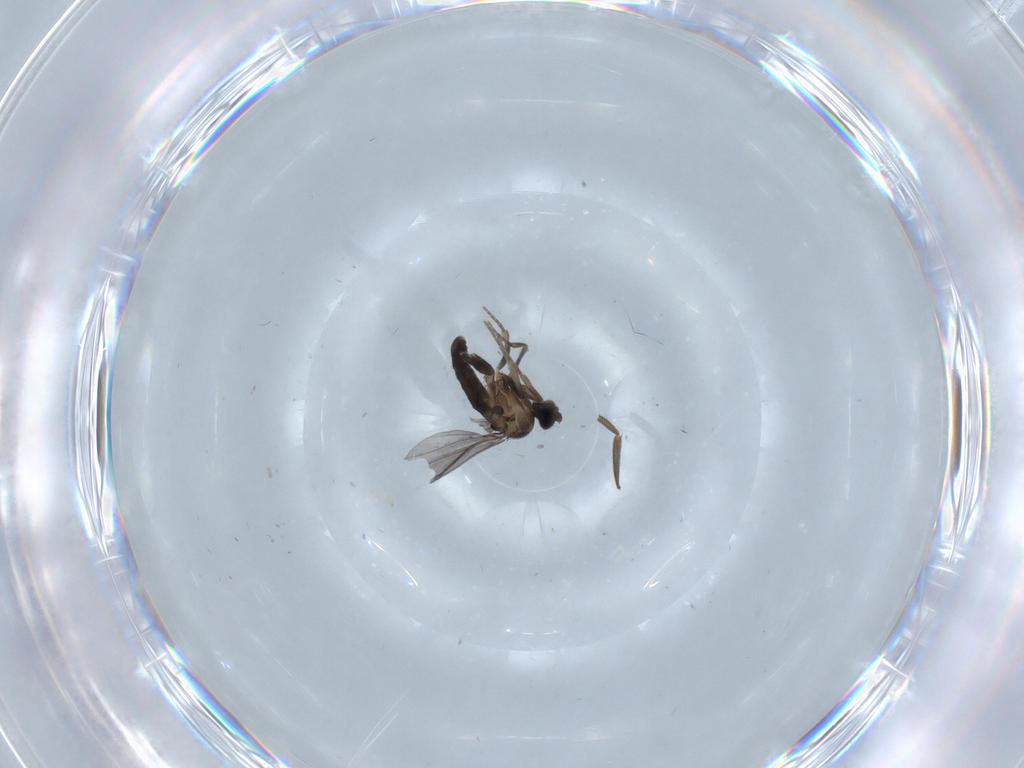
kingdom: Animalia
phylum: Arthropoda
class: Insecta
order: Diptera
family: Phoridae
